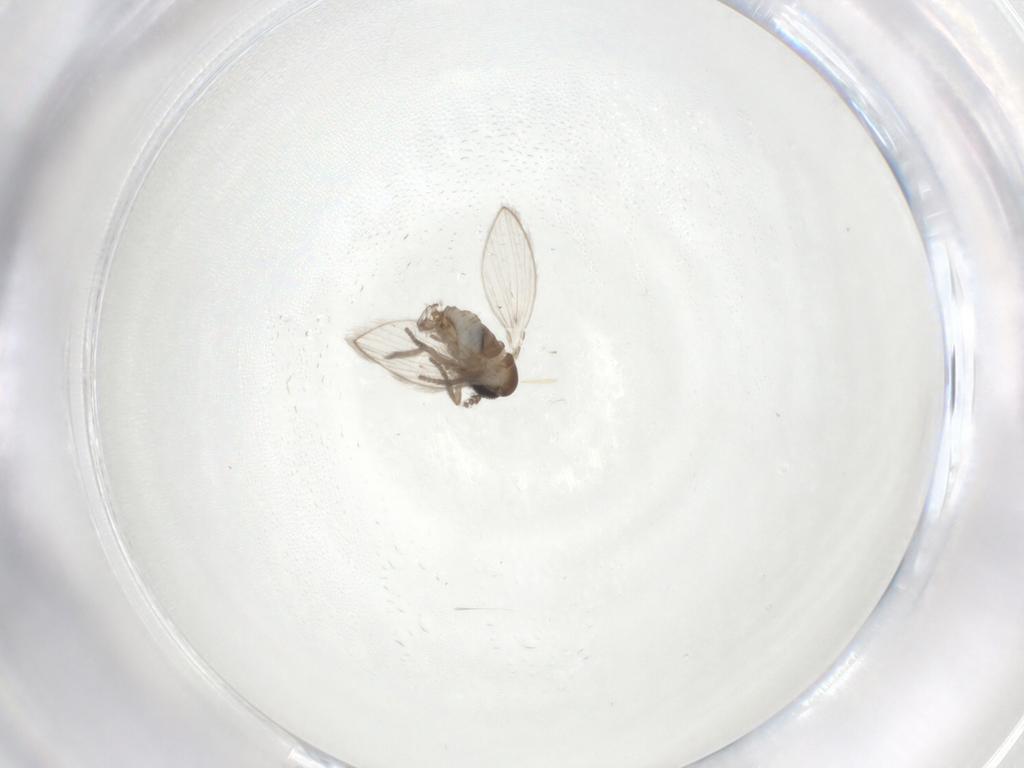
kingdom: Animalia
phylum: Arthropoda
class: Insecta
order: Diptera
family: Psychodidae
